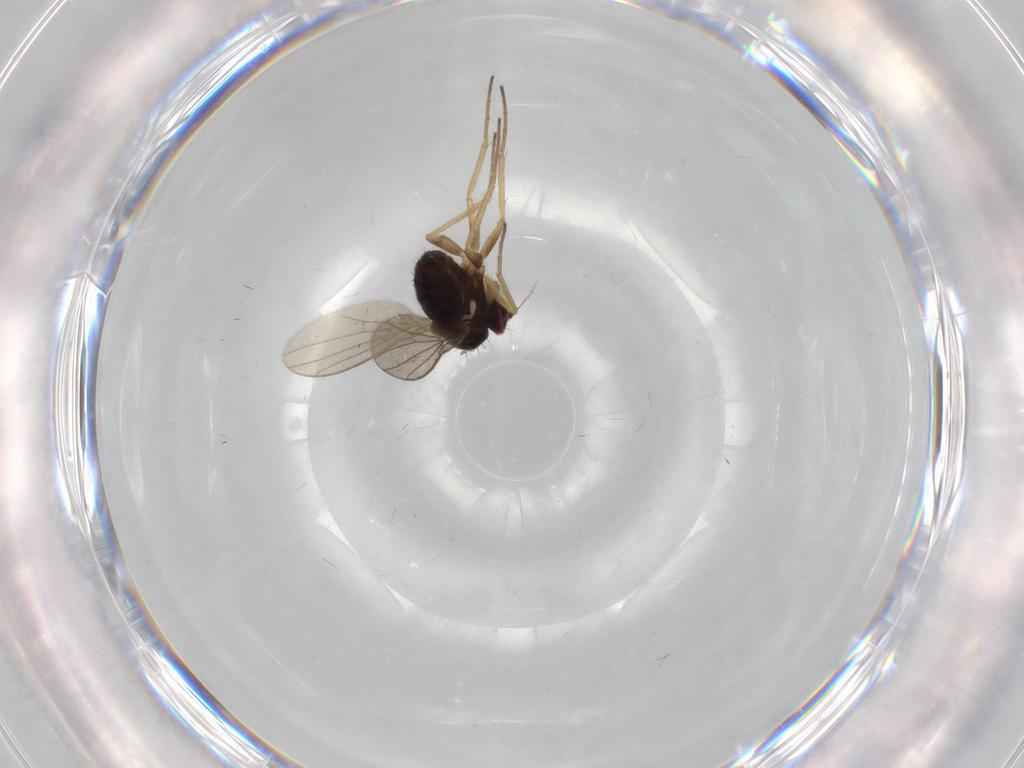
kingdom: Animalia
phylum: Arthropoda
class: Insecta
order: Diptera
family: Dolichopodidae
